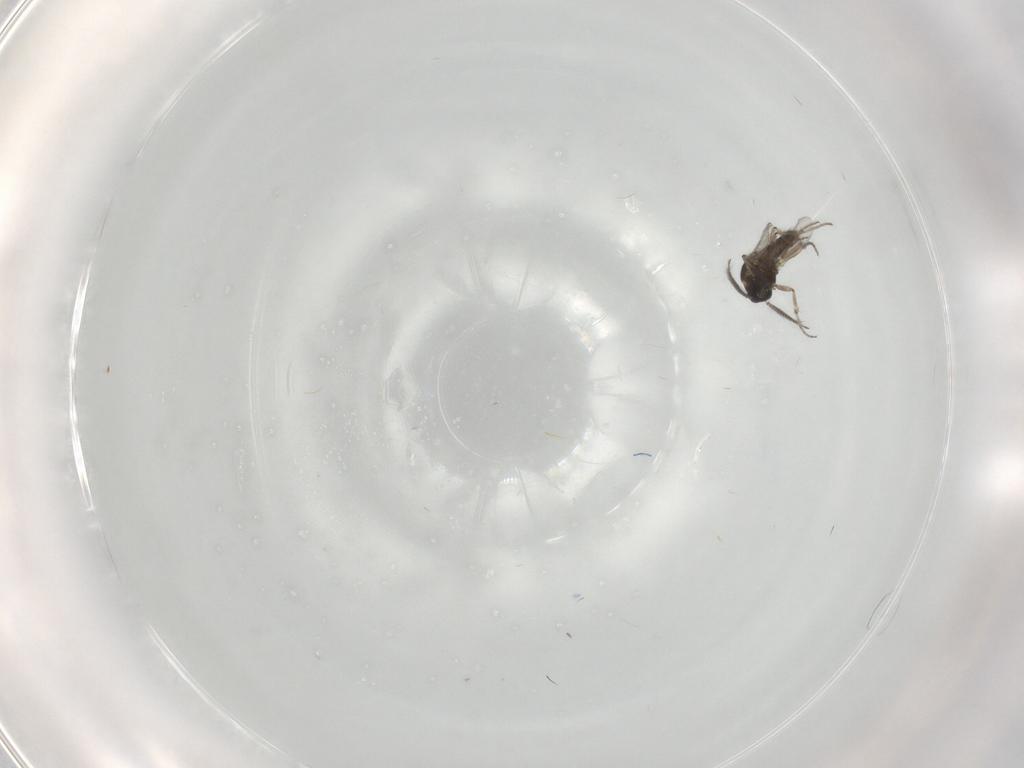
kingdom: Animalia
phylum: Arthropoda
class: Insecta
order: Diptera
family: Ceratopogonidae
